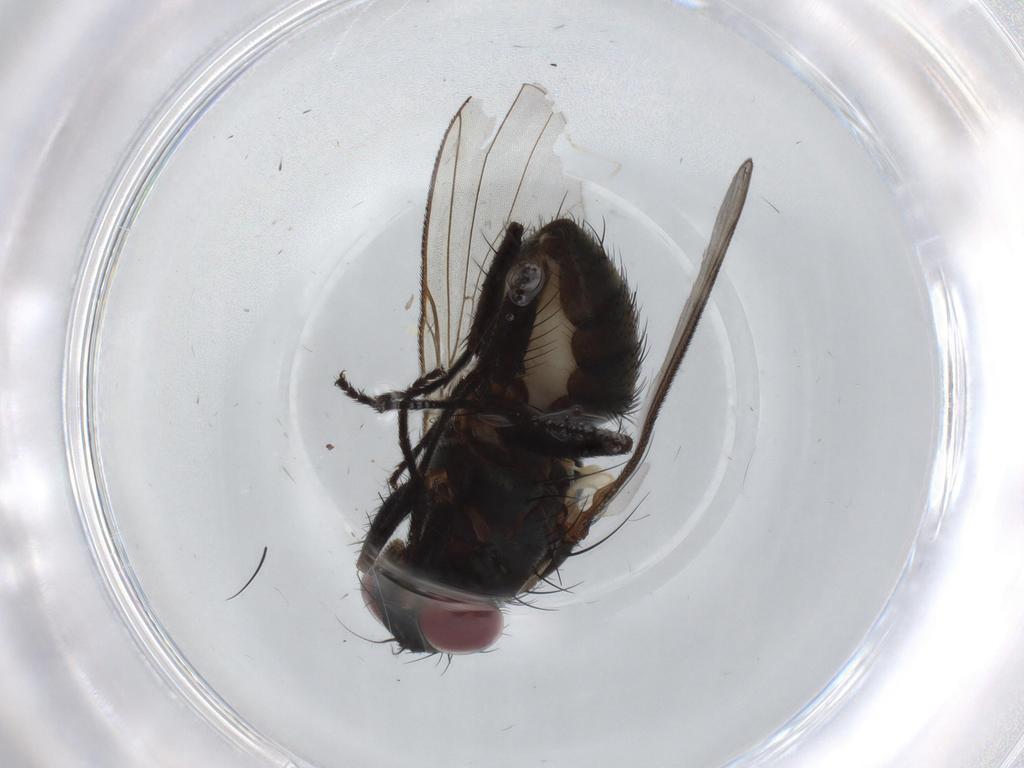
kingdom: Animalia
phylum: Arthropoda
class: Insecta
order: Diptera
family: Muscidae
